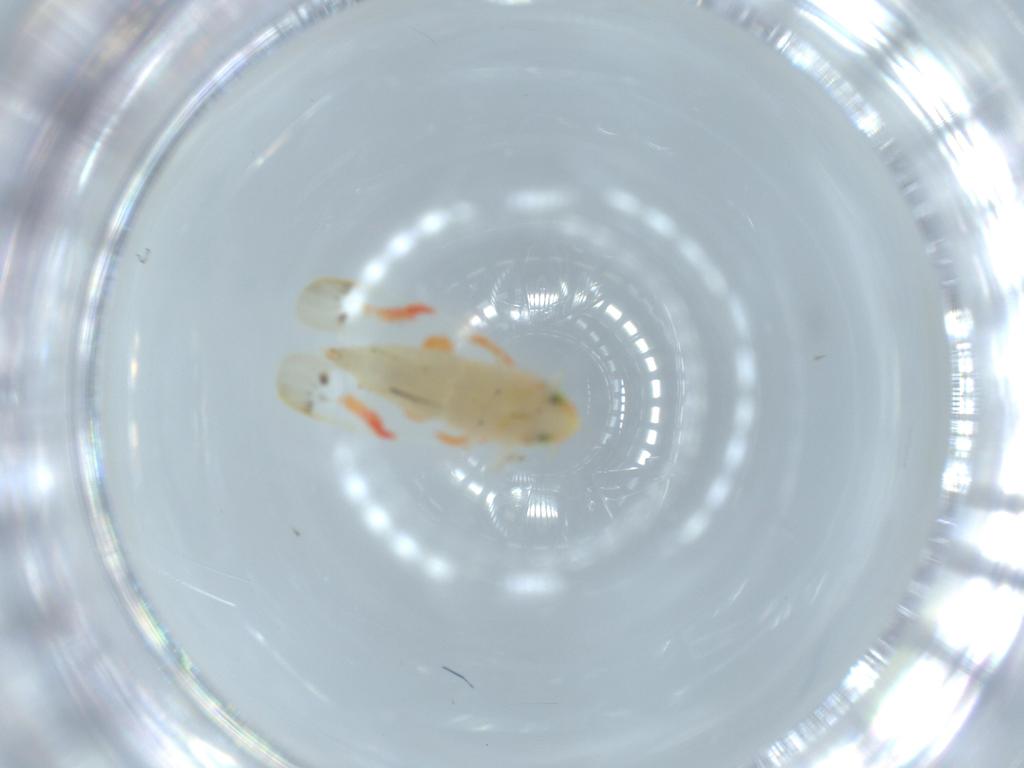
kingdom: Animalia
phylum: Arthropoda
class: Insecta
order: Hemiptera
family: Cicadellidae
